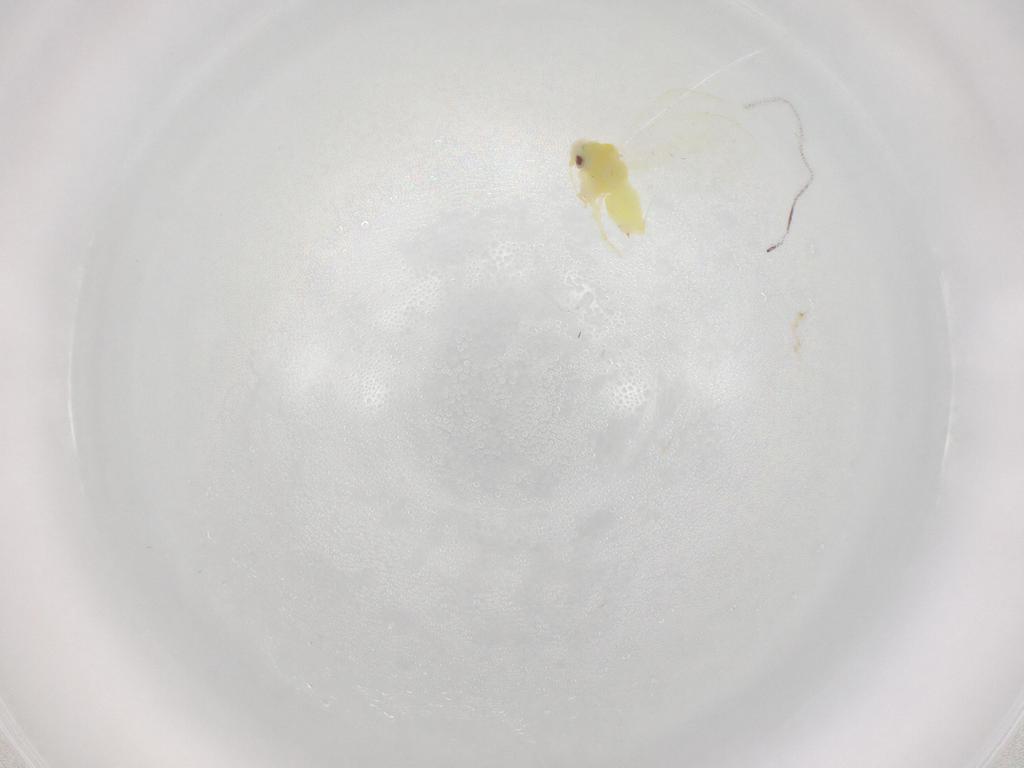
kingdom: Animalia
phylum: Arthropoda
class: Insecta
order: Hemiptera
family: Aleyrodidae
